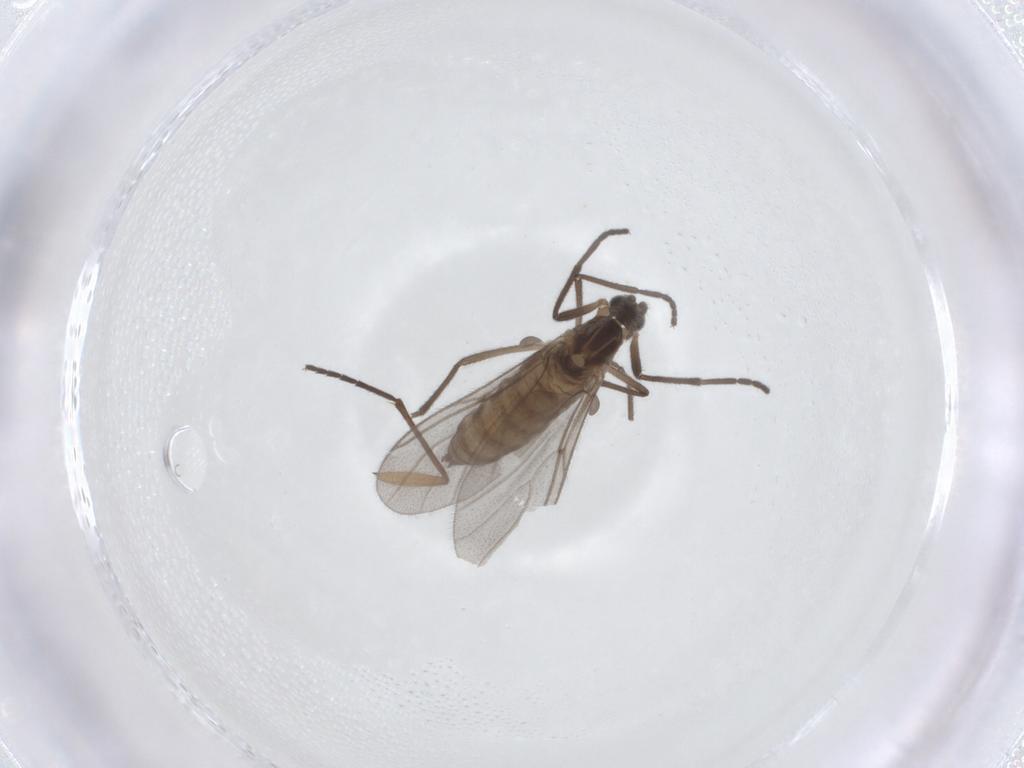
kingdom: Animalia
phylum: Arthropoda
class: Insecta
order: Diptera
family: Cecidomyiidae
